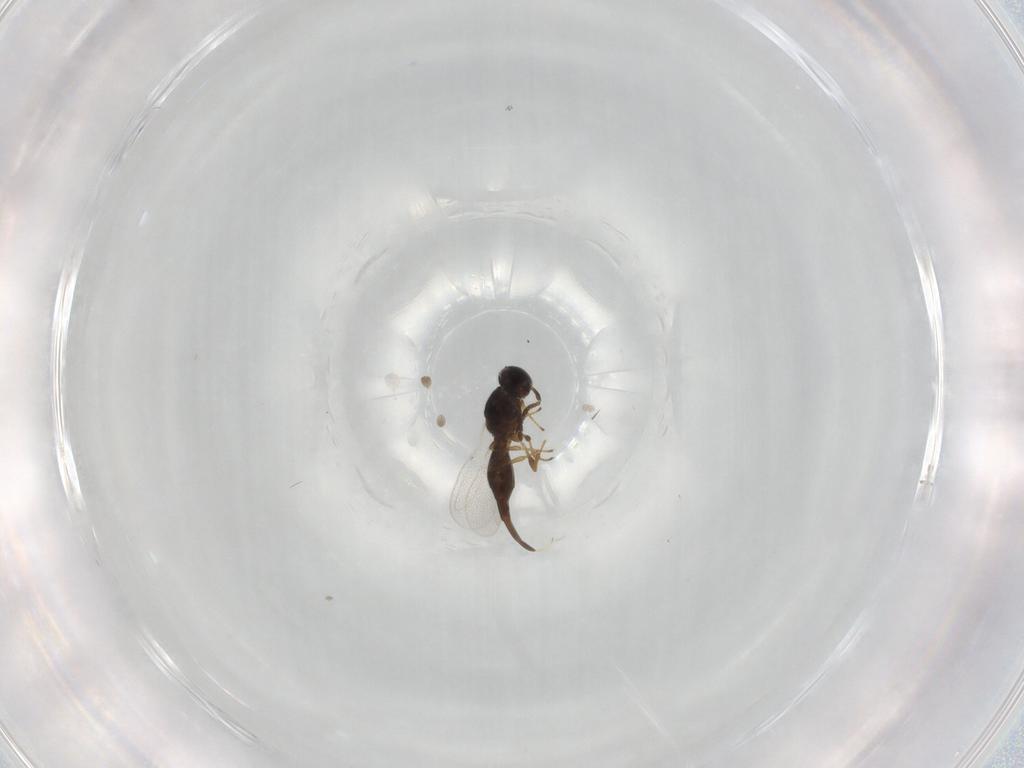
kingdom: Animalia
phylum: Arthropoda
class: Insecta
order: Hymenoptera
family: Platygastridae
